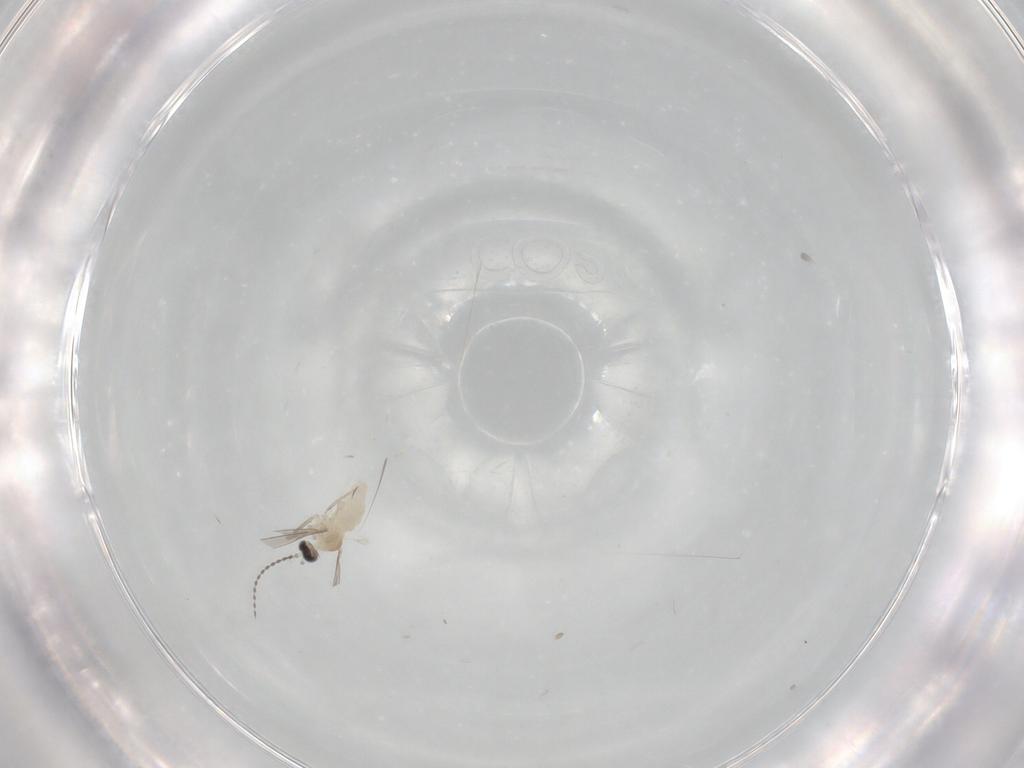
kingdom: Animalia
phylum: Arthropoda
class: Insecta
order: Diptera
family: Cecidomyiidae
